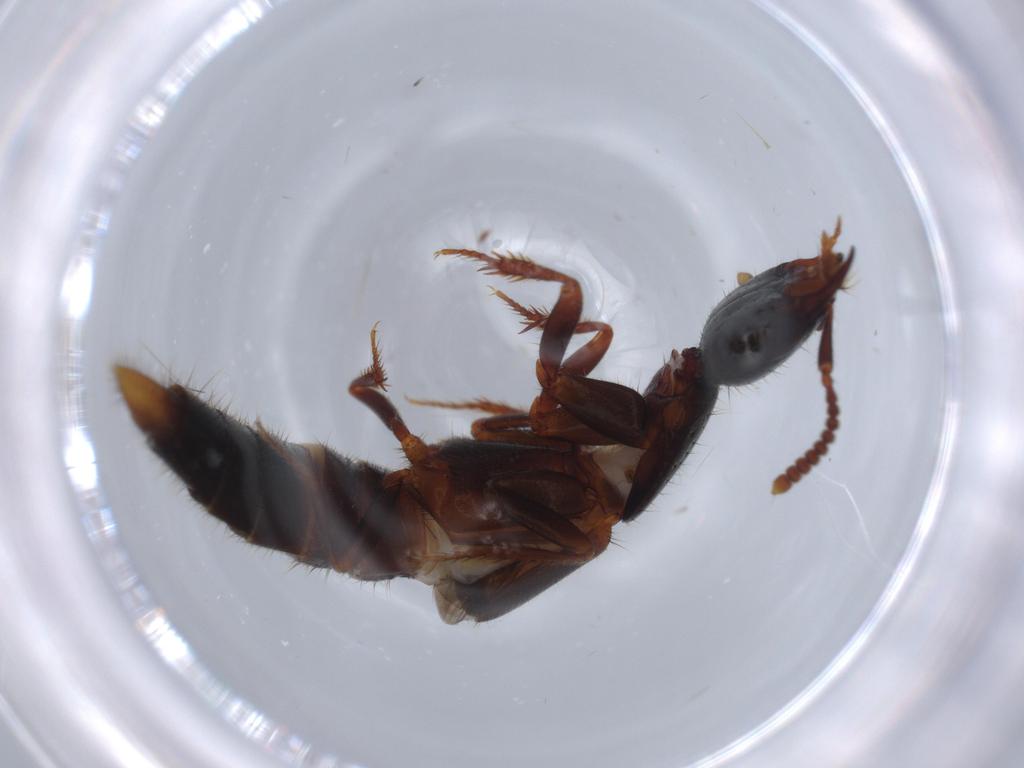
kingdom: Animalia
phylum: Arthropoda
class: Insecta
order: Coleoptera
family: Staphylinidae
